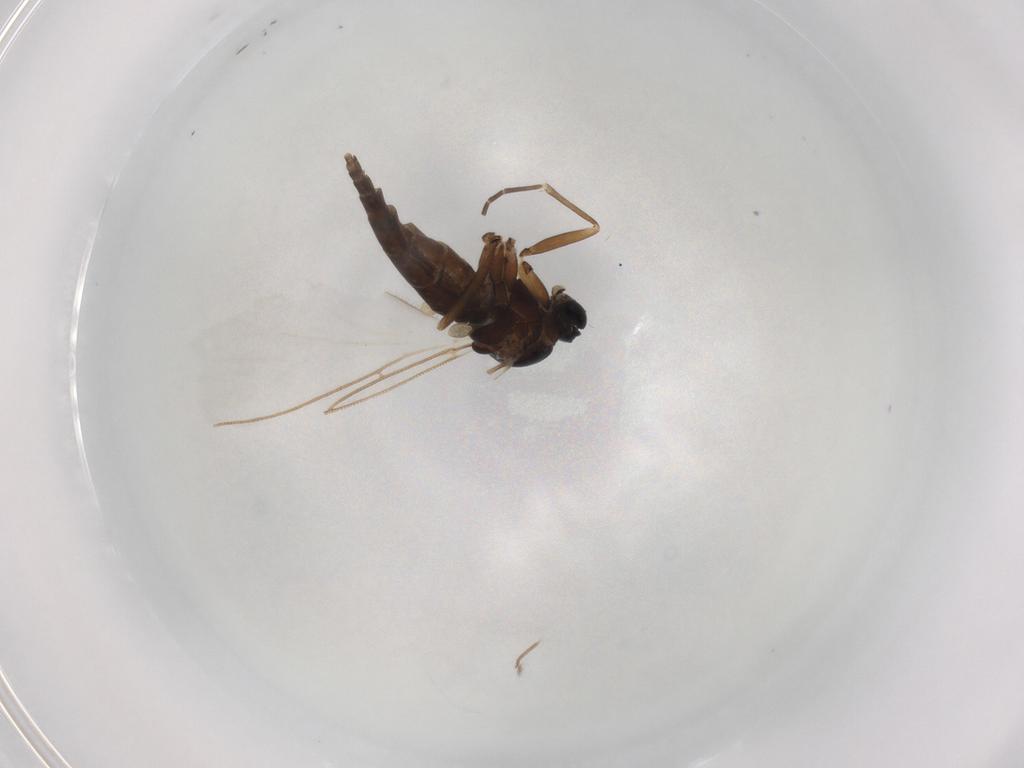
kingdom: Animalia
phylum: Arthropoda
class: Insecta
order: Diptera
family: Sciaridae
